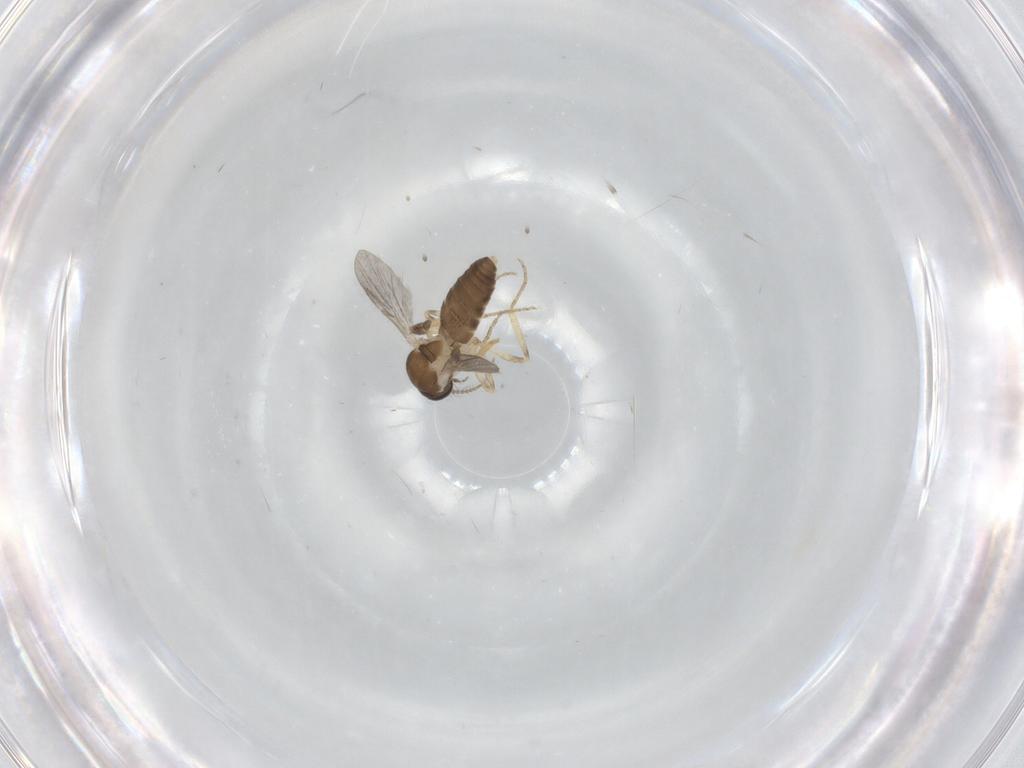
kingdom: Animalia
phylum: Arthropoda
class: Insecta
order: Diptera
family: Ceratopogonidae
